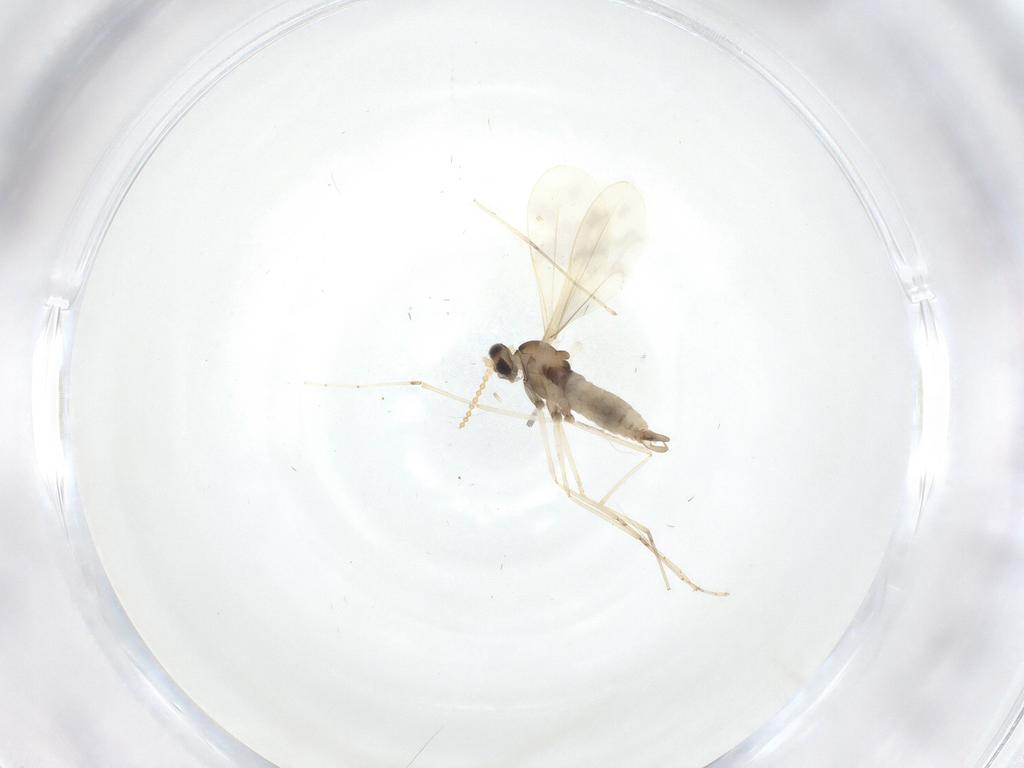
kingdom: Animalia
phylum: Arthropoda
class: Insecta
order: Diptera
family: Cecidomyiidae
